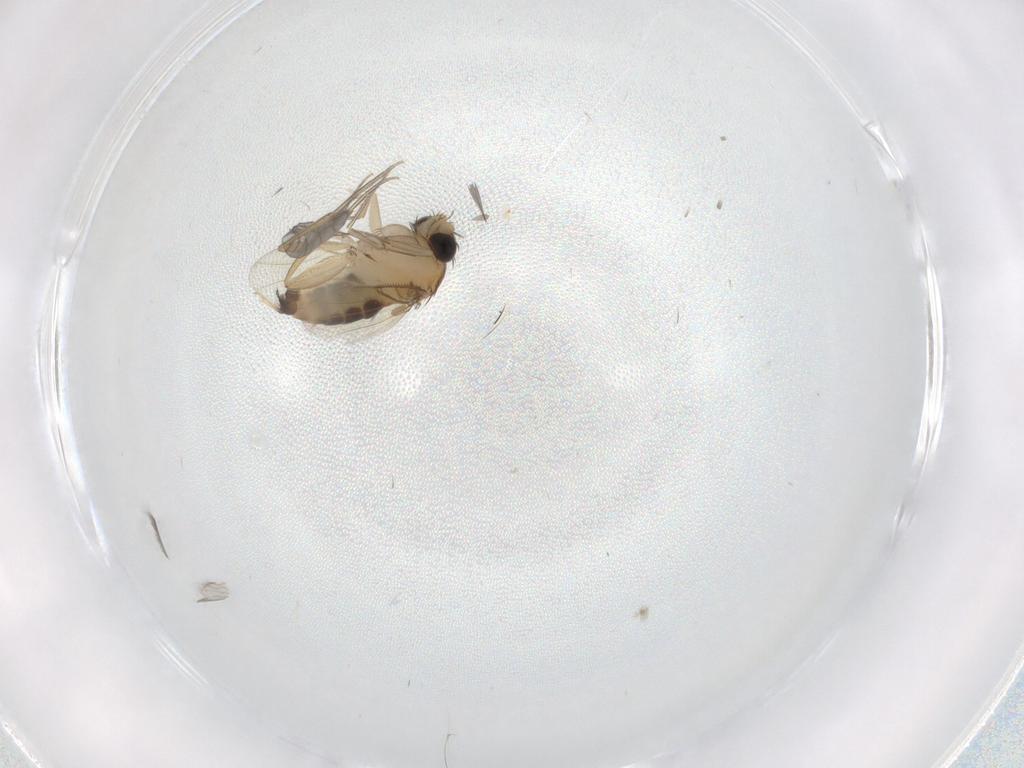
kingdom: Animalia
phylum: Arthropoda
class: Insecta
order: Diptera
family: Phoridae
